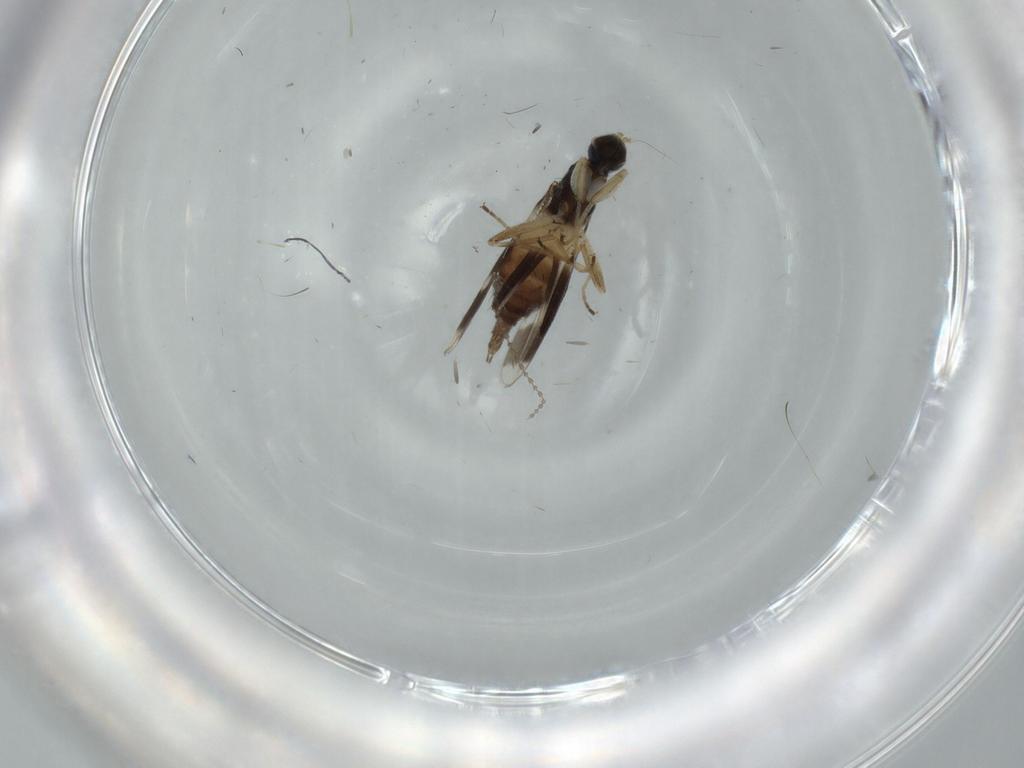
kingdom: Animalia
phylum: Arthropoda
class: Insecta
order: Diptera
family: Hybotidae
